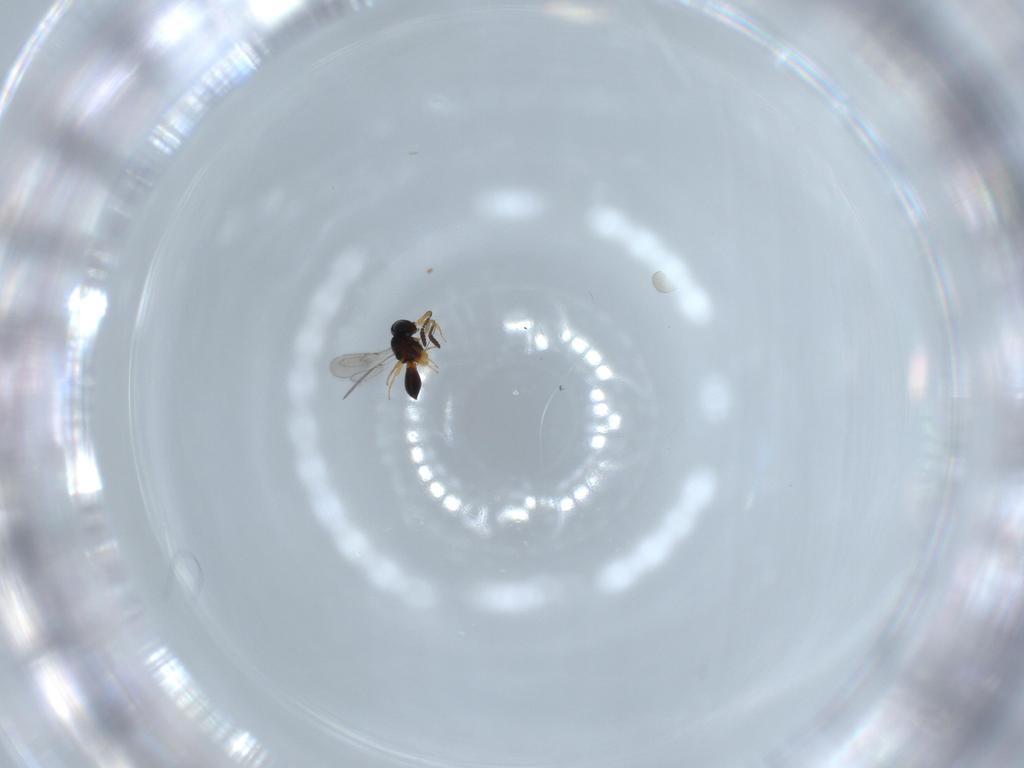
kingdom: Animalia
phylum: Arthropoda
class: Insecta
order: Hymenoptera
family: Scelionidae
